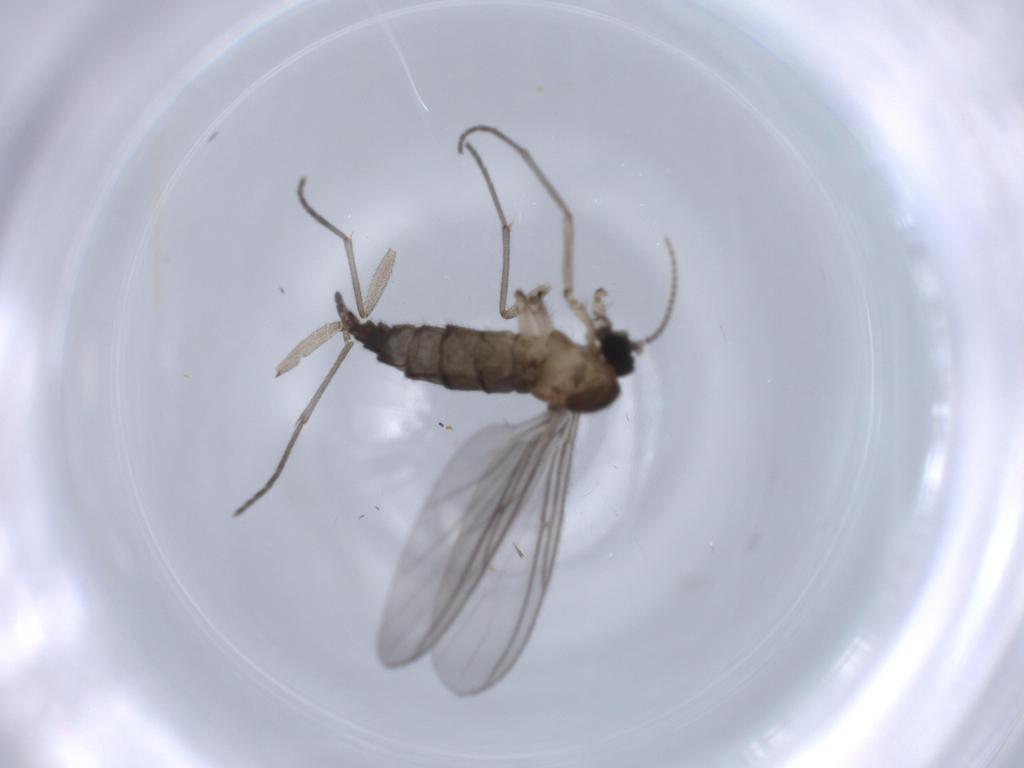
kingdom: Animalia
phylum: Arthropoda
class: Insecta
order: Diptera
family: Sciaridae
